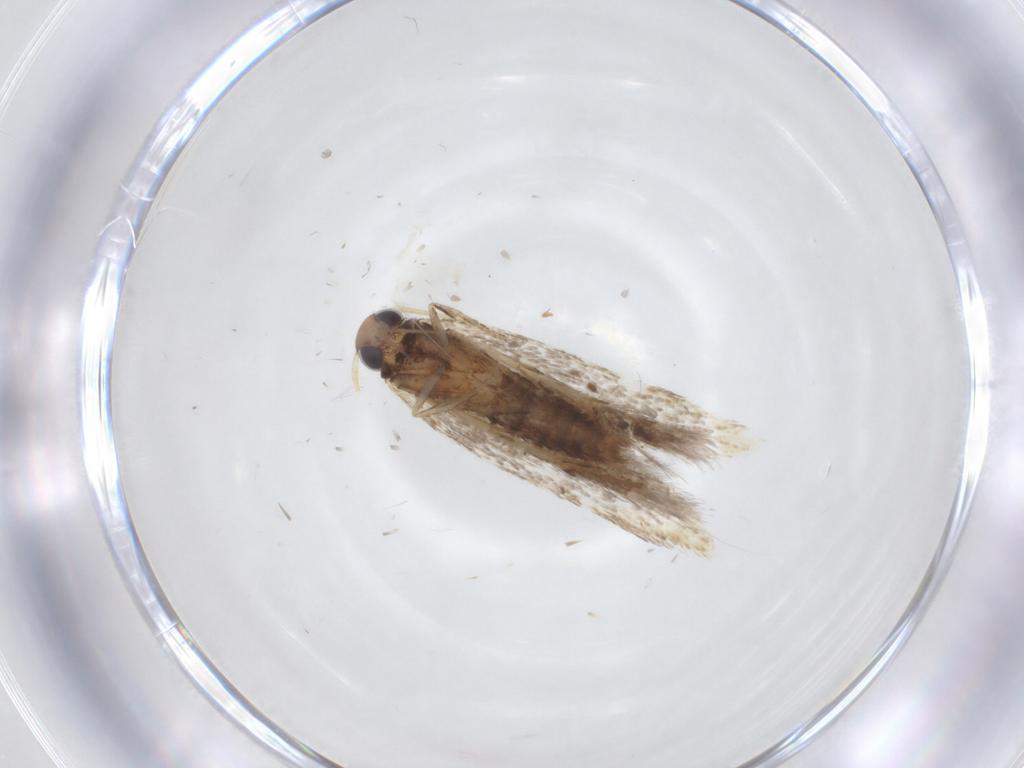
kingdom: Animalia
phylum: Arthropoda
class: Insecta
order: Lepidoptera
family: Gelechiidae
